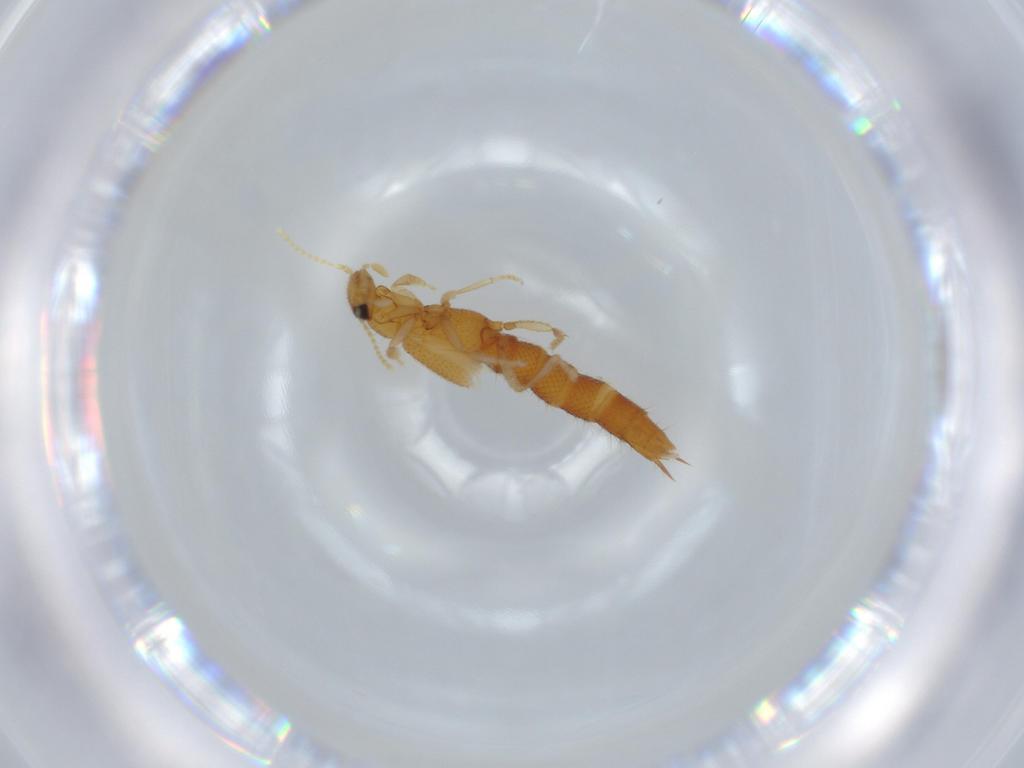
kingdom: Animalia
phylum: Arthropoda
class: Insecta
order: Coleoptera
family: Staphylinidae
